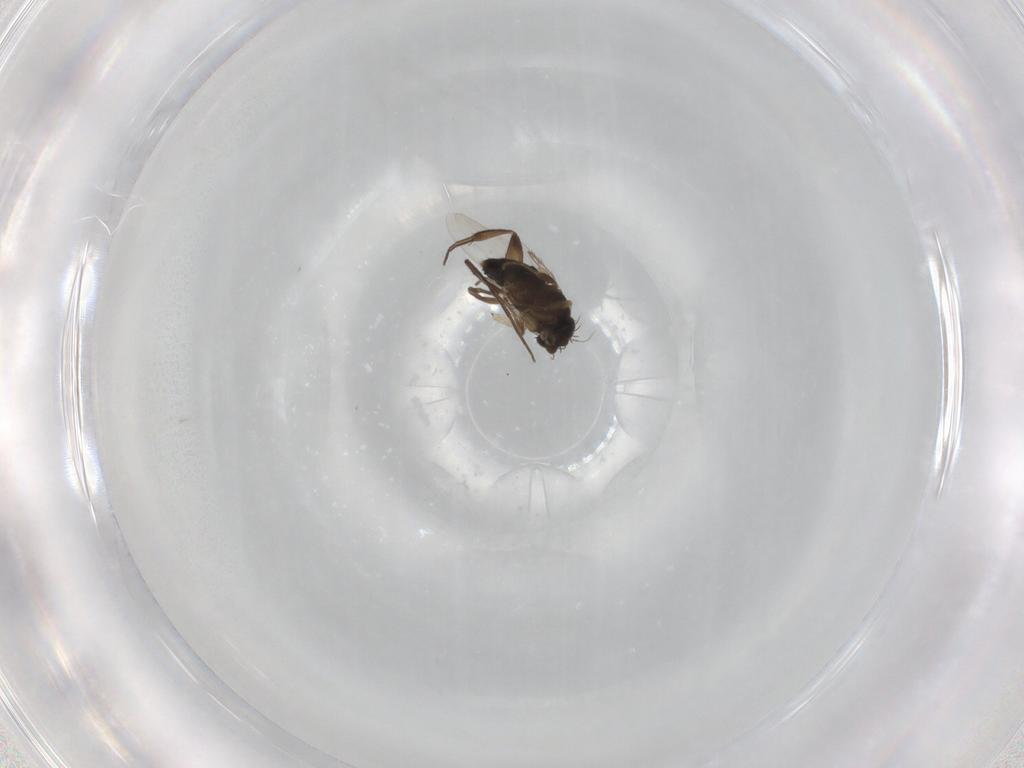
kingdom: Animalia
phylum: Arthropoda
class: Insecta
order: Diptera
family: Phoridae
